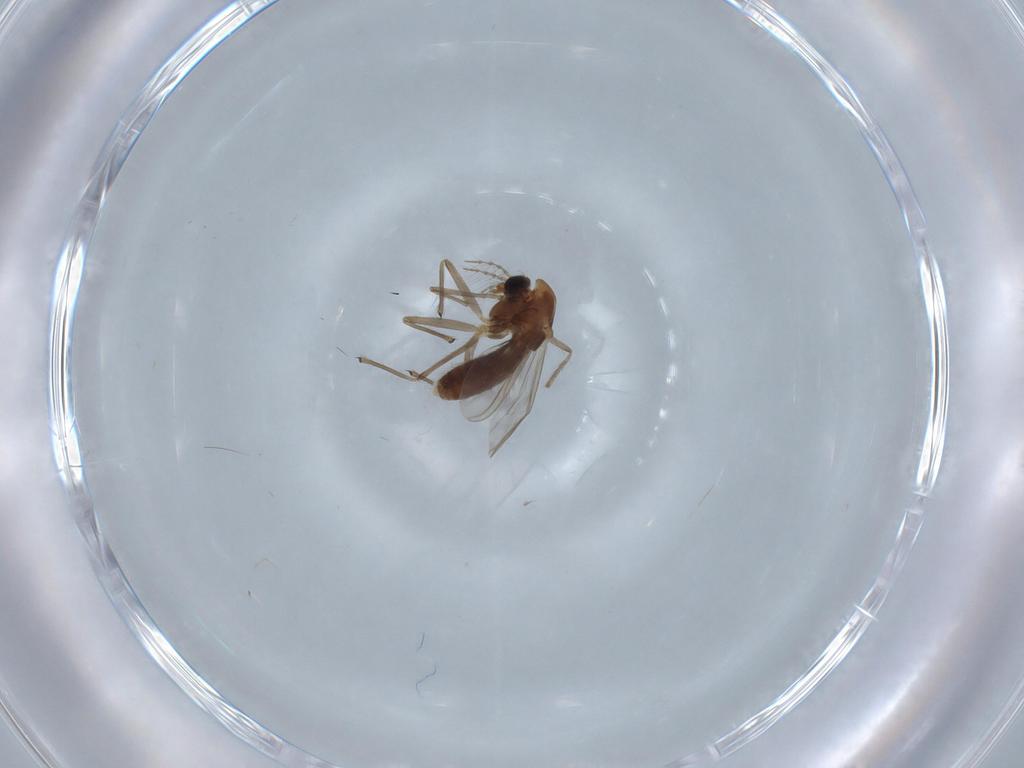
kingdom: Animalia
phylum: Arthropoda
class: Insecta
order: Diptera
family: Chironomidae
